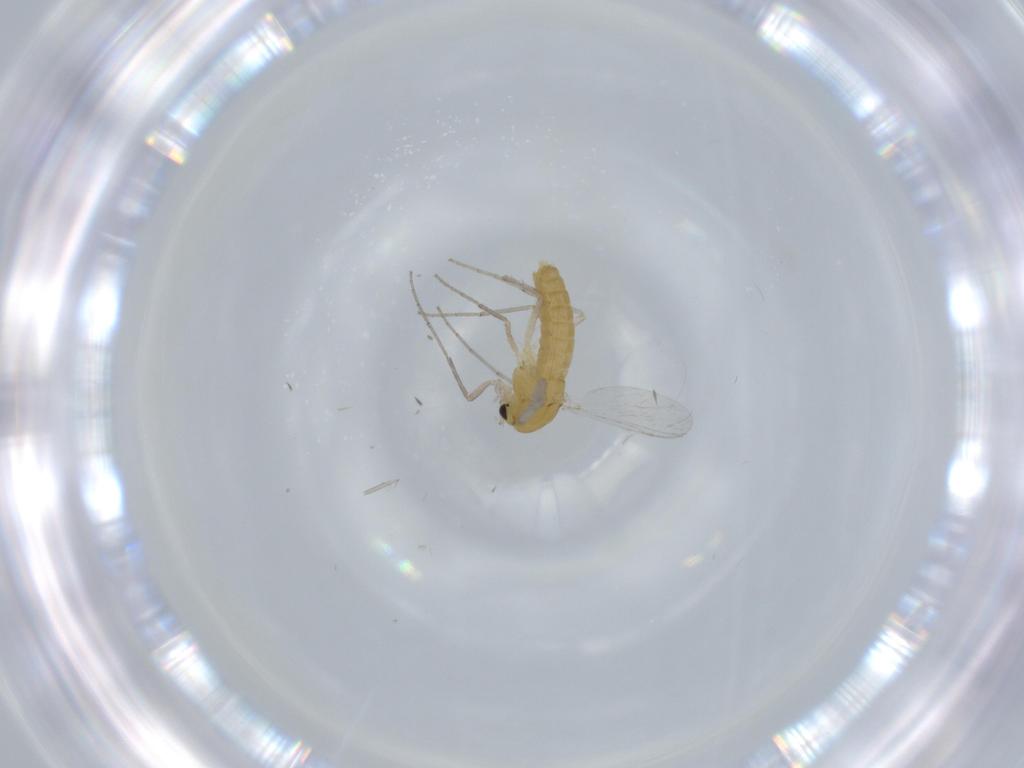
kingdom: Animalia
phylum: Arthropoda
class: Insecta
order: Diptera
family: Chironomidae
